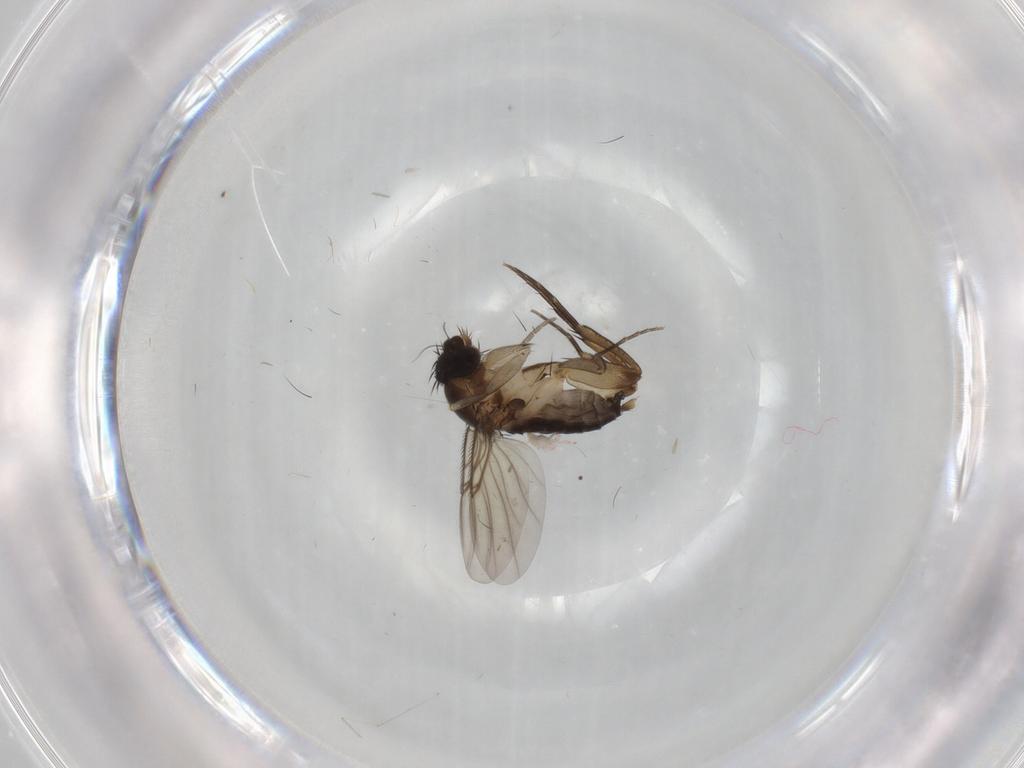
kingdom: Animalia
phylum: Arthropoda
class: Insecta
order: Diptera
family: Phoridae
